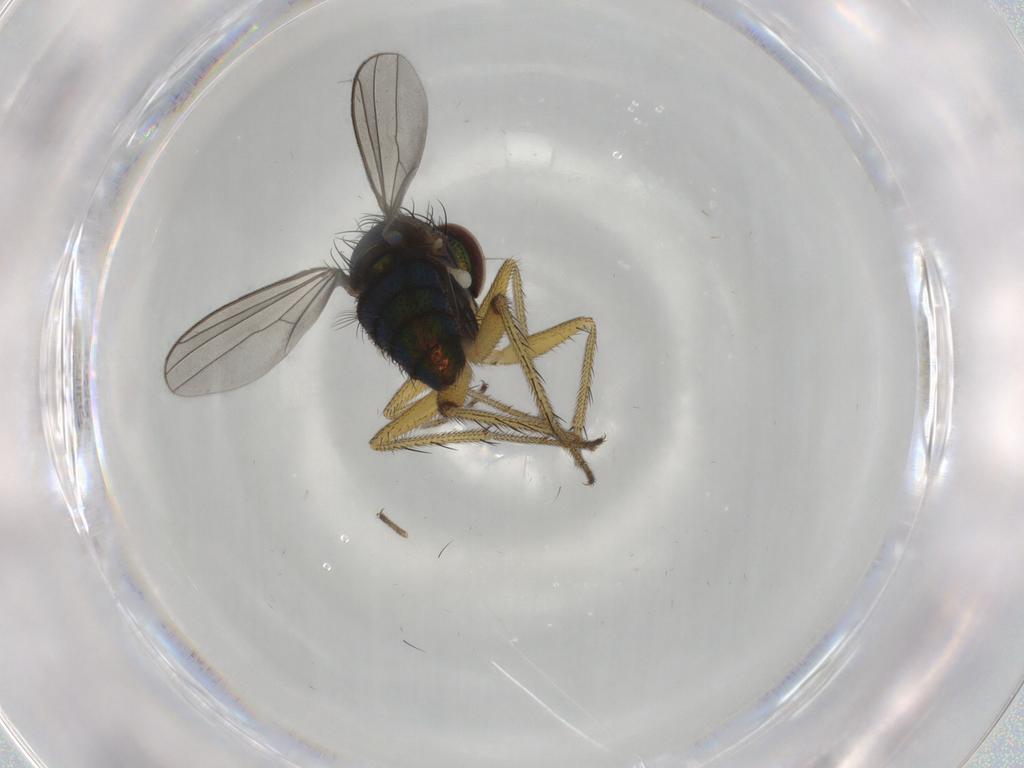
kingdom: Animalia
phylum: Arthropoda
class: Insecta
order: Diptera
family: Dolichopodidae
